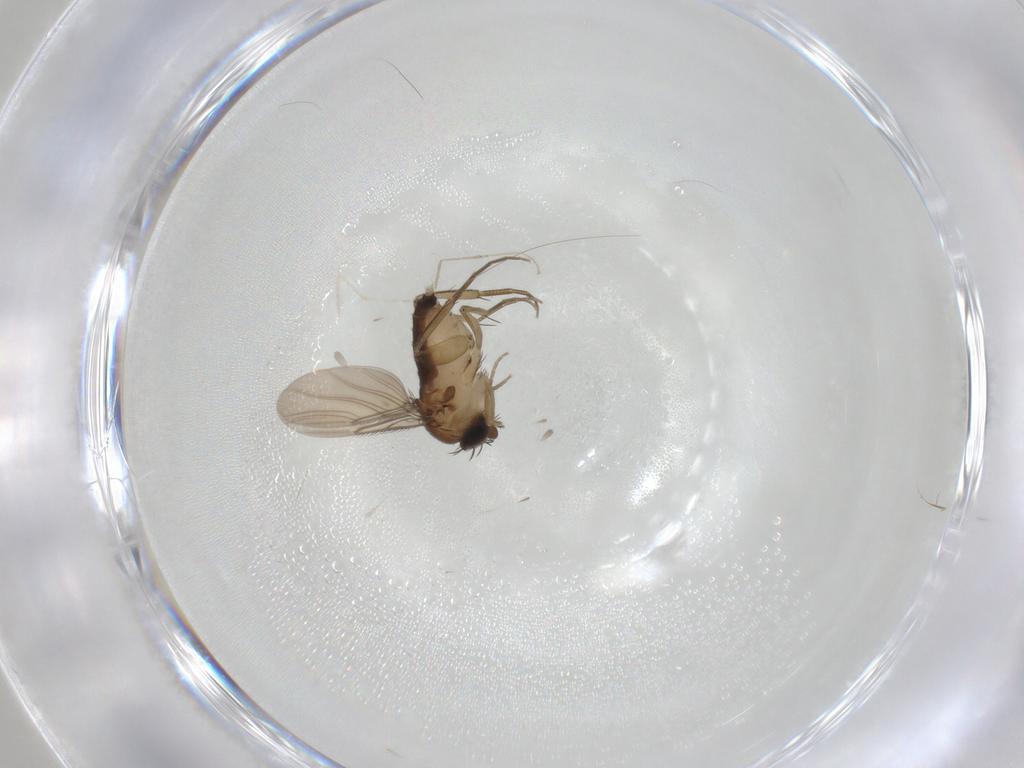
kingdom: Animalia
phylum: Arthropoda
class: Insecta
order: Diptera
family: Phoridae
